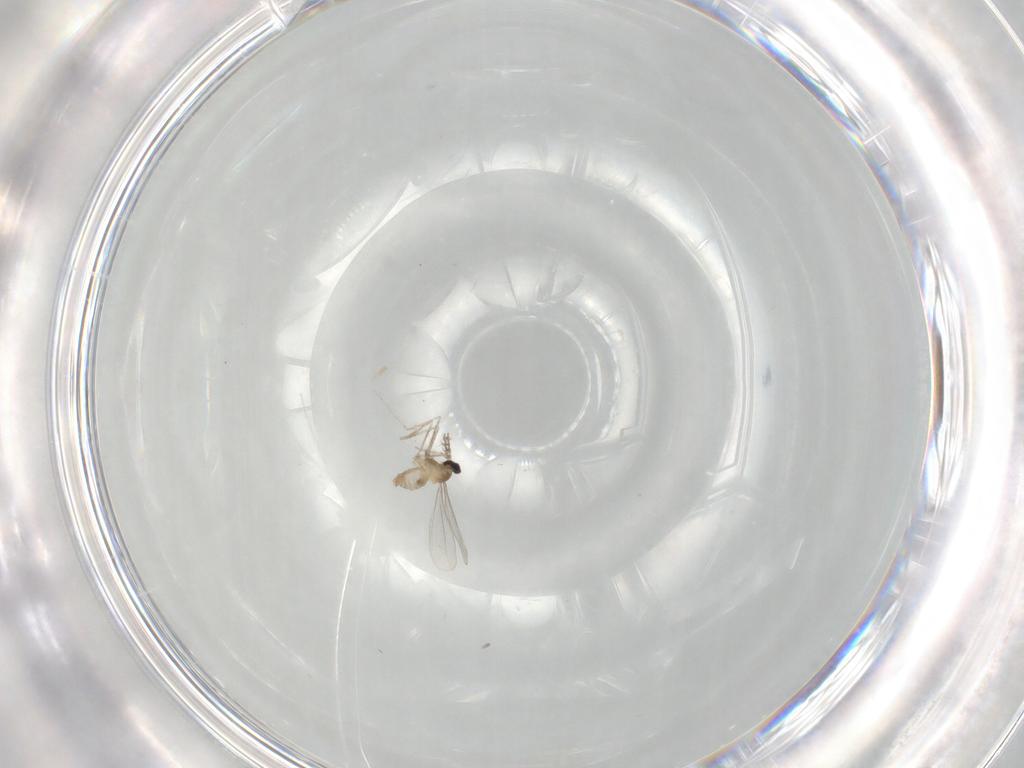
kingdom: Animalia
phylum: Arthropoda
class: Insecta
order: Diptera
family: Cecidomyiidae
